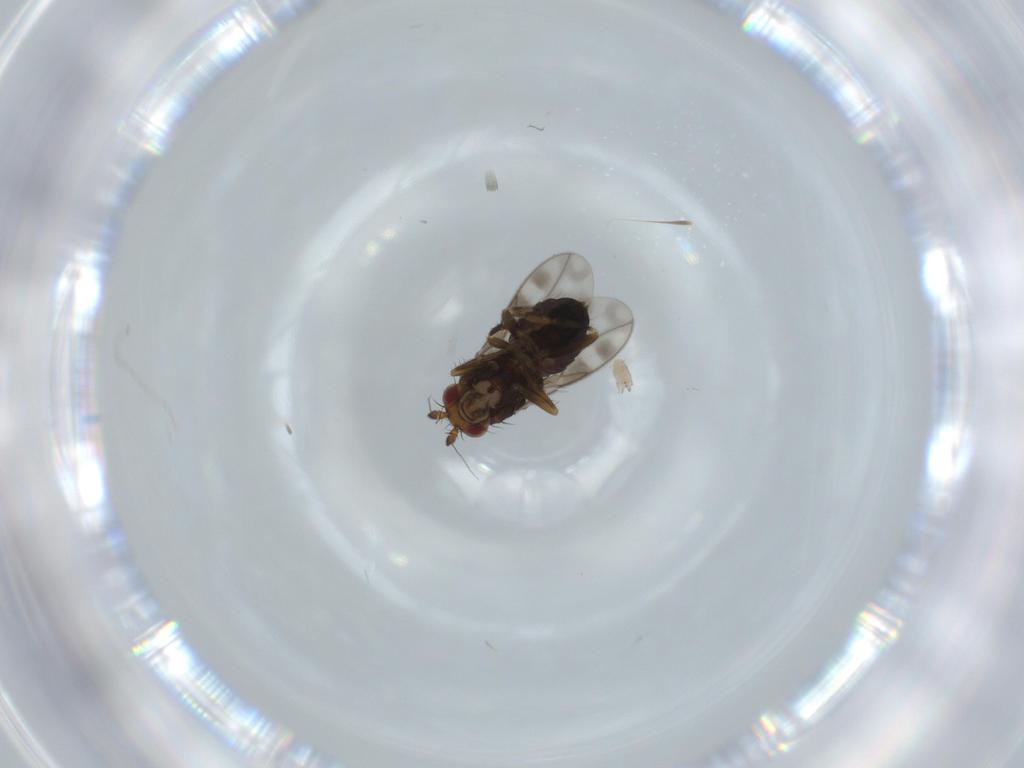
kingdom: Animalia
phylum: Arthropoda
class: Insecta
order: Diptera
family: Sphaeroceridae
